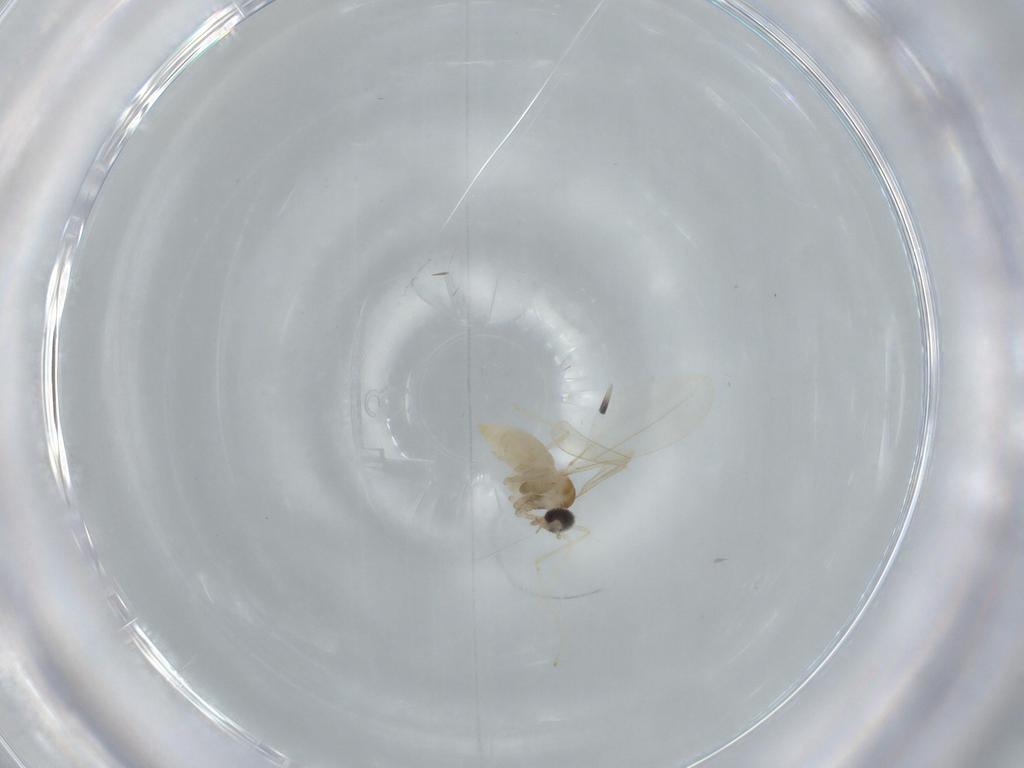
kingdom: Animalia
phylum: Arthropoda
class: Insecta
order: Diptera
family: Cecidomyiidae
